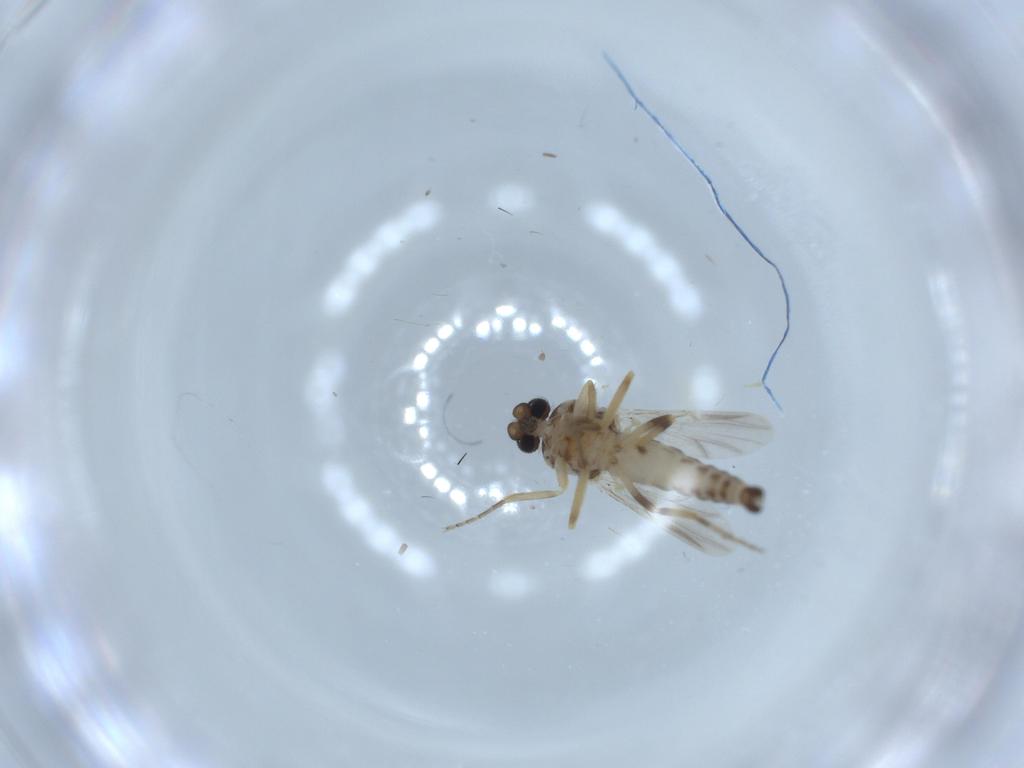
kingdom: Animalia
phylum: Arthropoda
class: Insecta
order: Diptera
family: Ceratopogonidae
